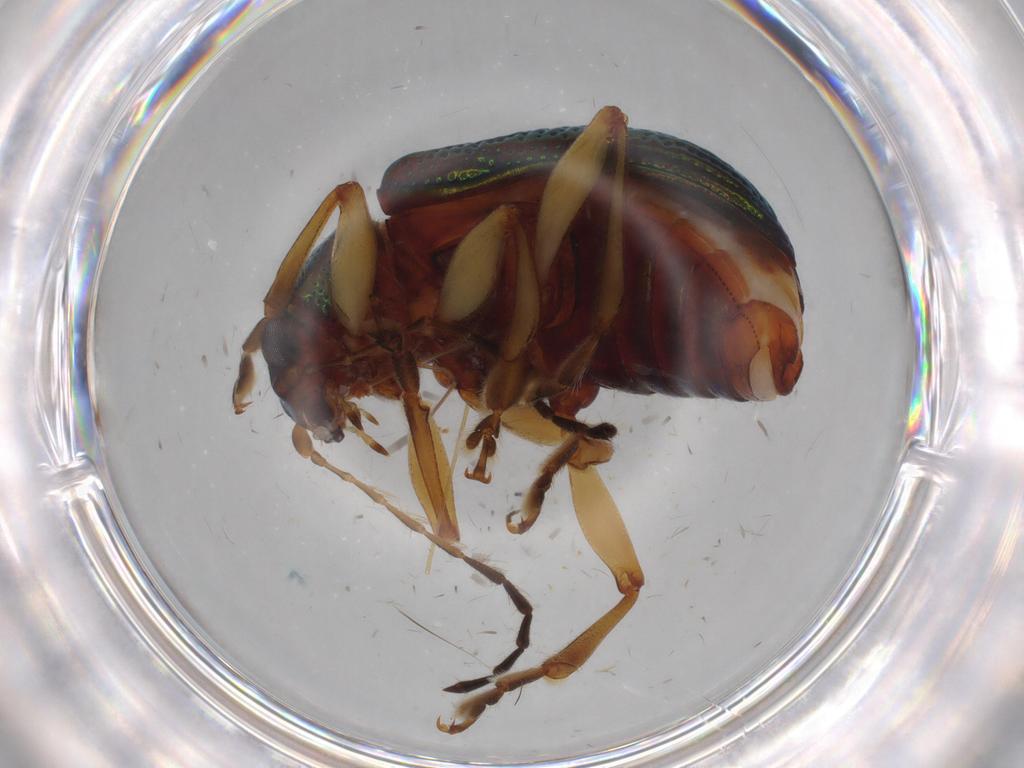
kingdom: Animalia
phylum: Arthropoda
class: Insecta
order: Coleoptera
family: Chrysomelidae
